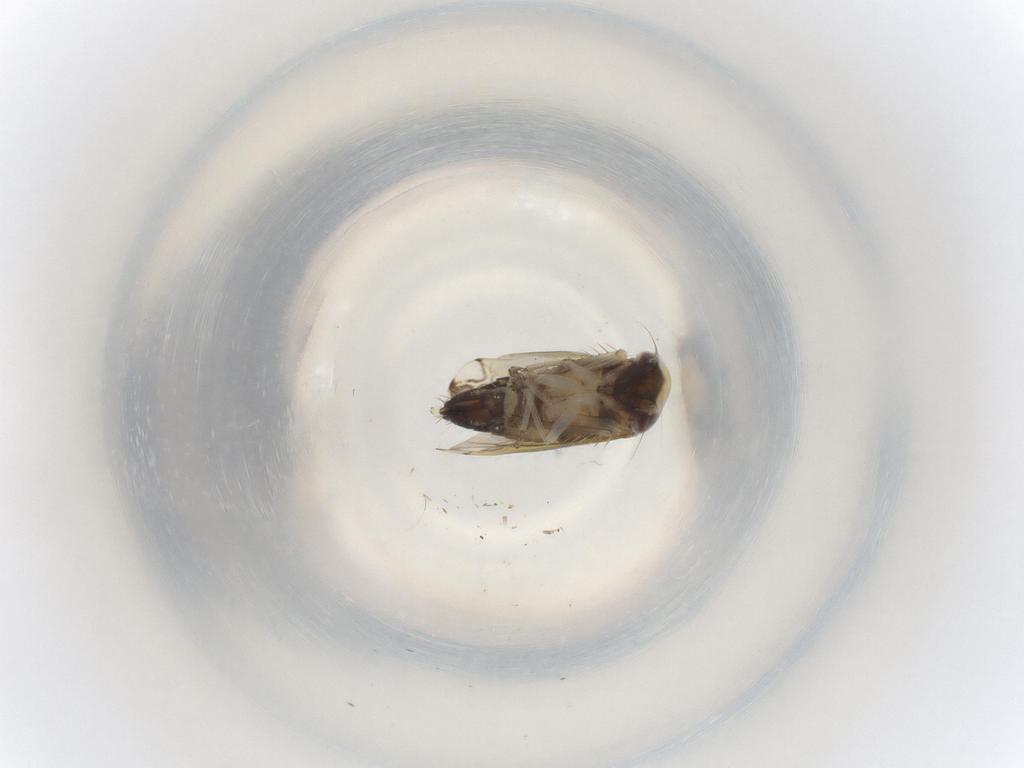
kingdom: Animalia
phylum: Arthropoda
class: Insecta
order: Hemiptera
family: Cicadellidae
